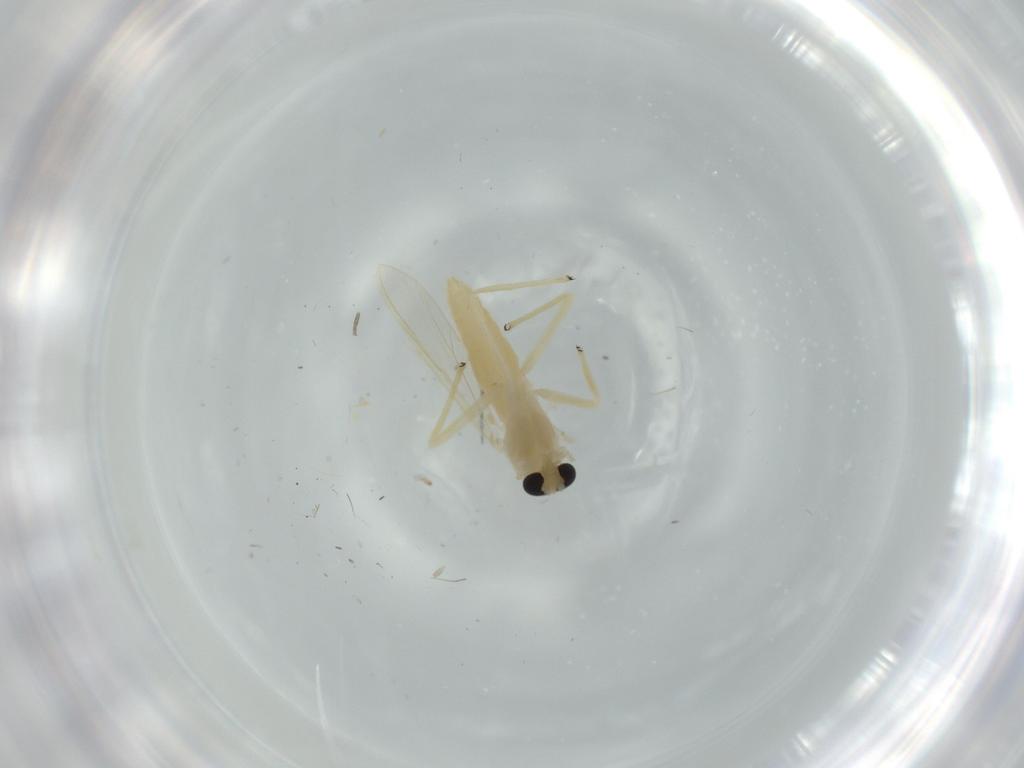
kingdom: Animalia
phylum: Arthropoda
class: Insecta
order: Diptera
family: Chironomidae
